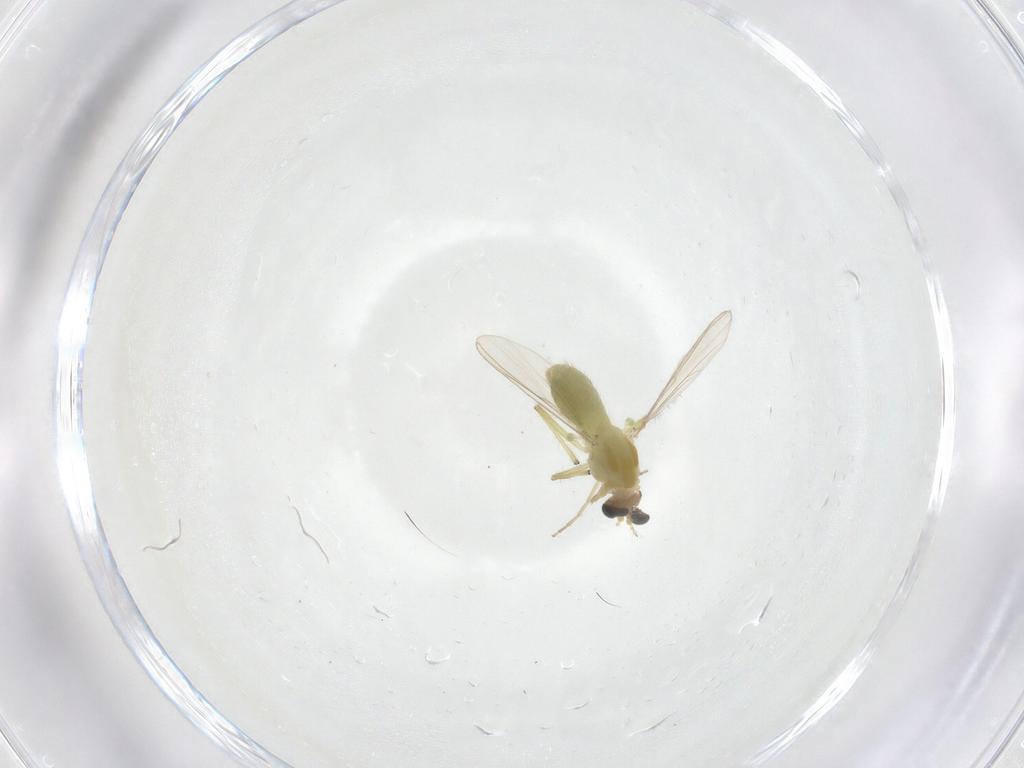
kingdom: Animalia
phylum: Arthropoda
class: Insecta
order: Diptera
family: Chironomidae
